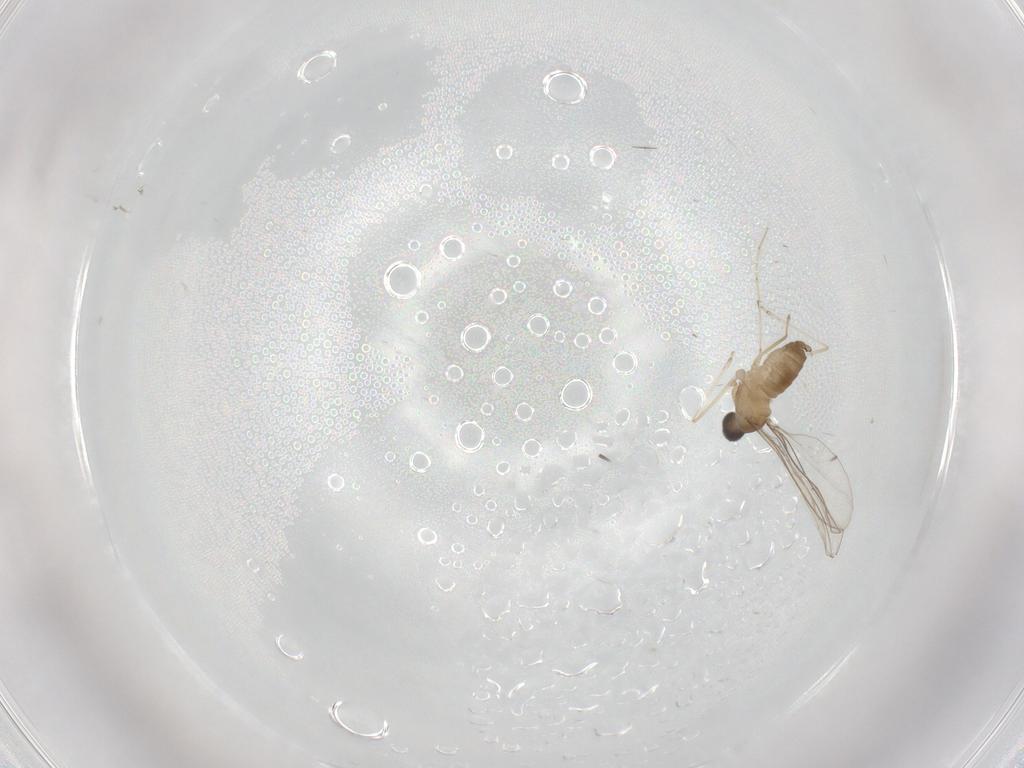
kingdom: Animalia
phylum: Arthropoda
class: Insecta
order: Diptera
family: Cecidomyiidae
